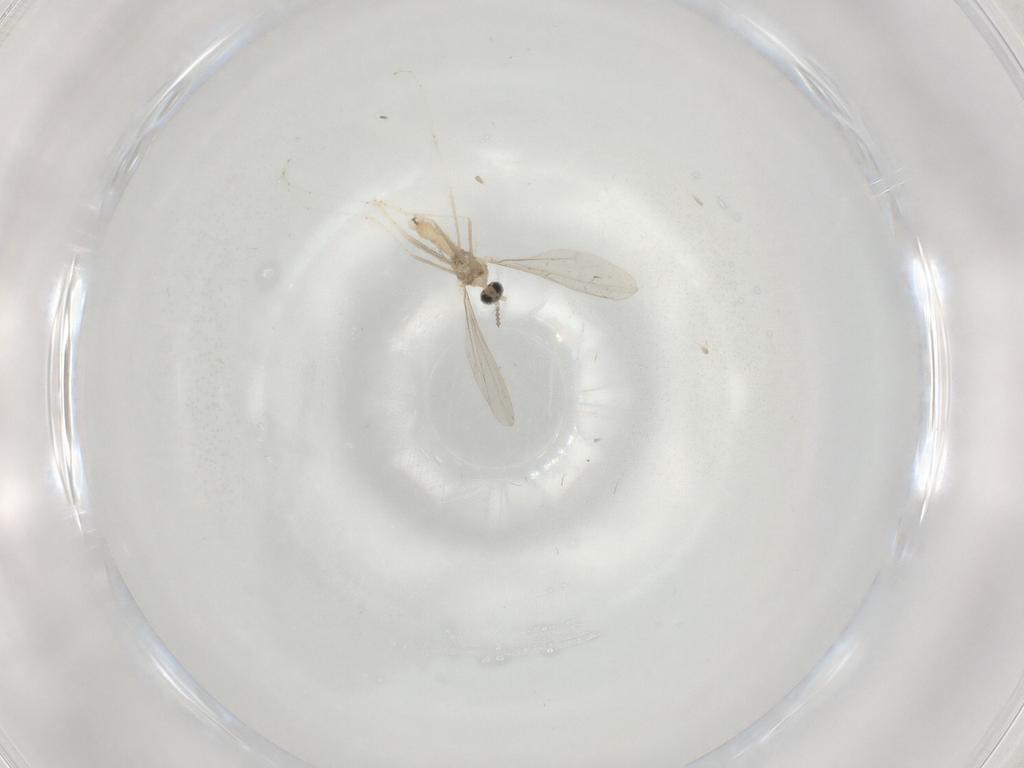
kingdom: Animalia
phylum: Arthropoda
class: Insecta
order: Diptera
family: Cecidomyiidae
